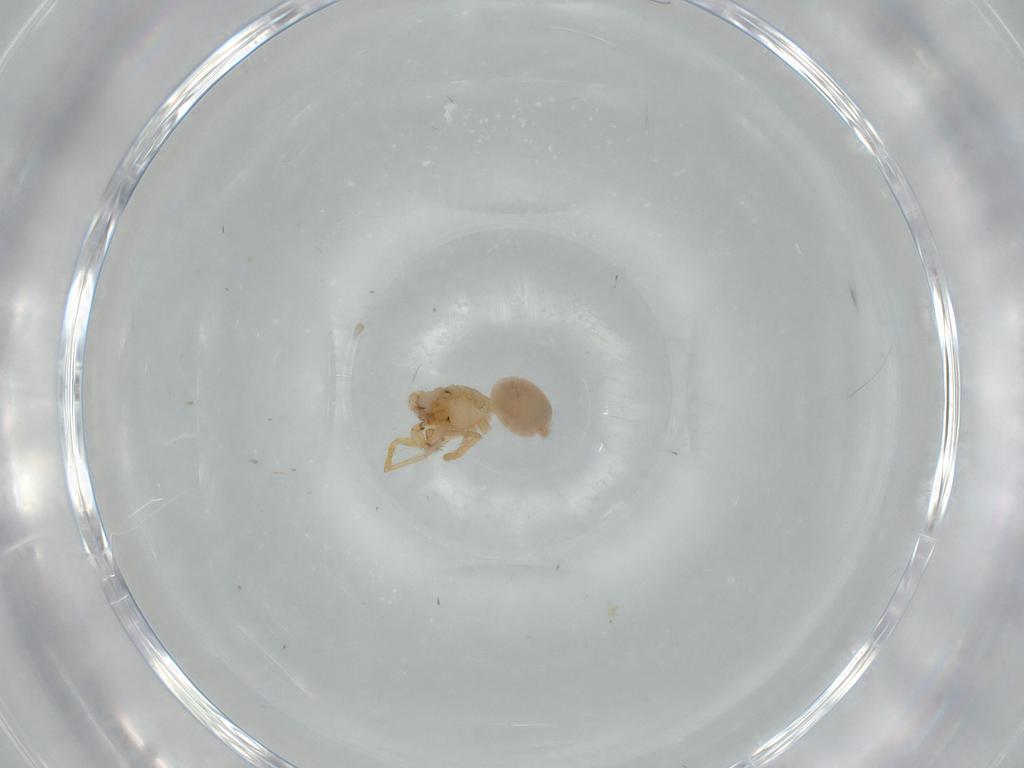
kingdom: Animalia
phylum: Arthropoda
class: Arachnida
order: Araneae
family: Oonopidae
